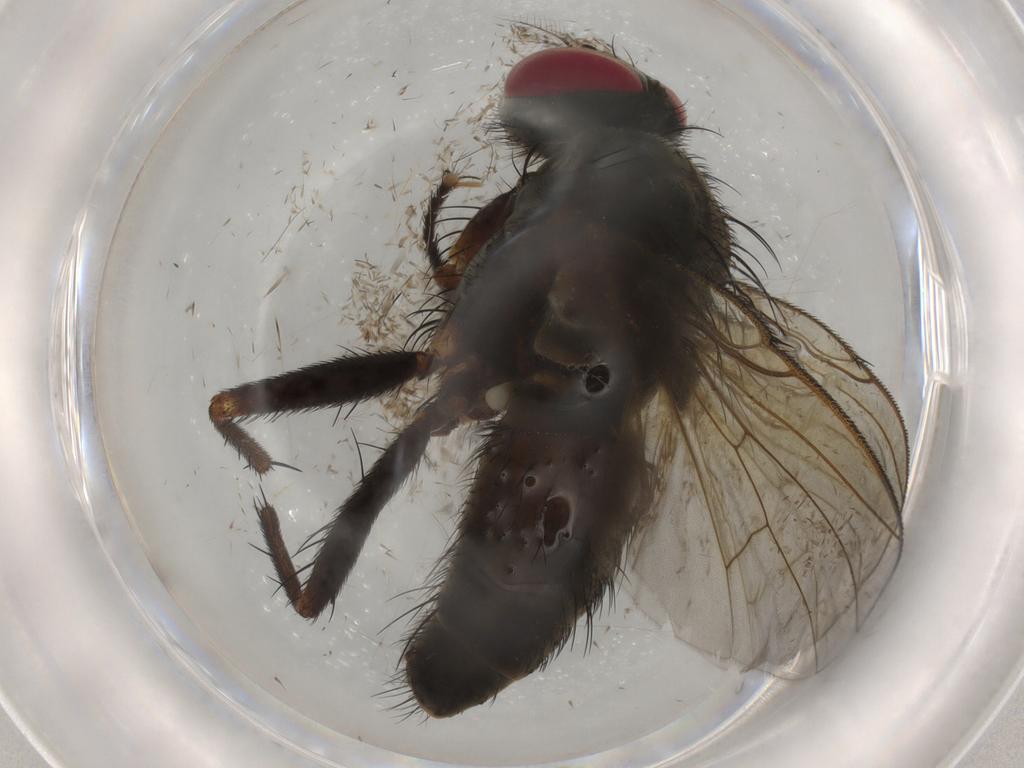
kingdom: Animalia
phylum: Arthropoda
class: Insecta
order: Diptera
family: Muscidae
